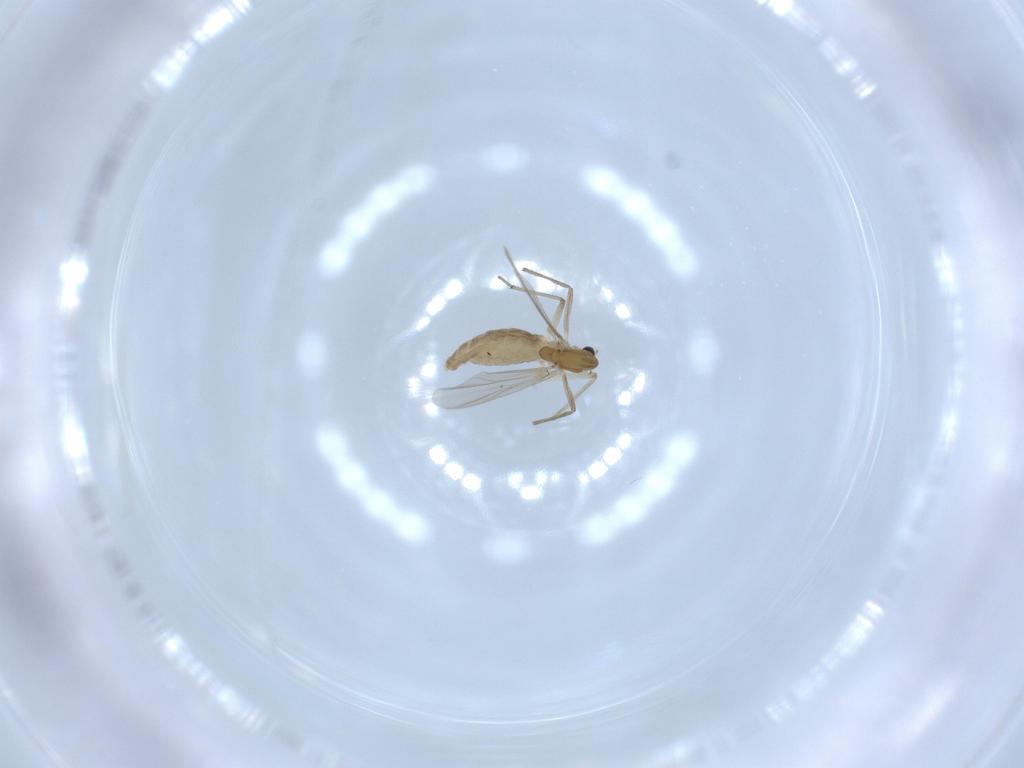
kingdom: Animalia
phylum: Arthropoda
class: Insecta
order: Diptera
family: Chironomidae
